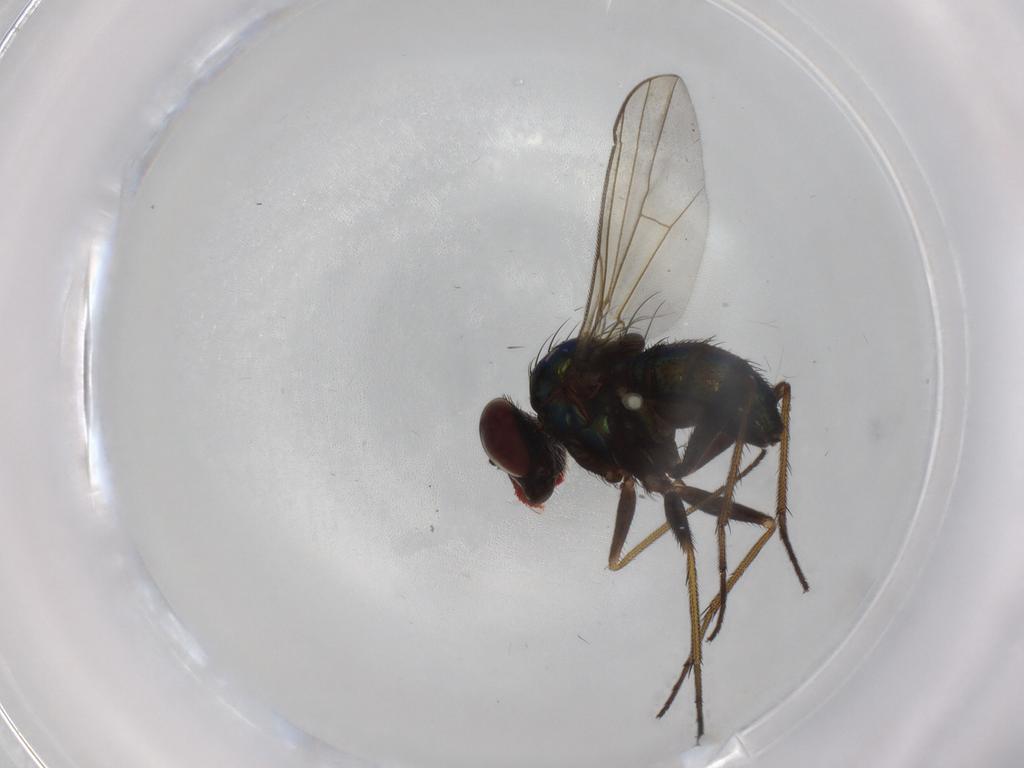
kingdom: Animalia
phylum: Arthropoda
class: Insecta
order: Diptera
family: Dolichopodidae
